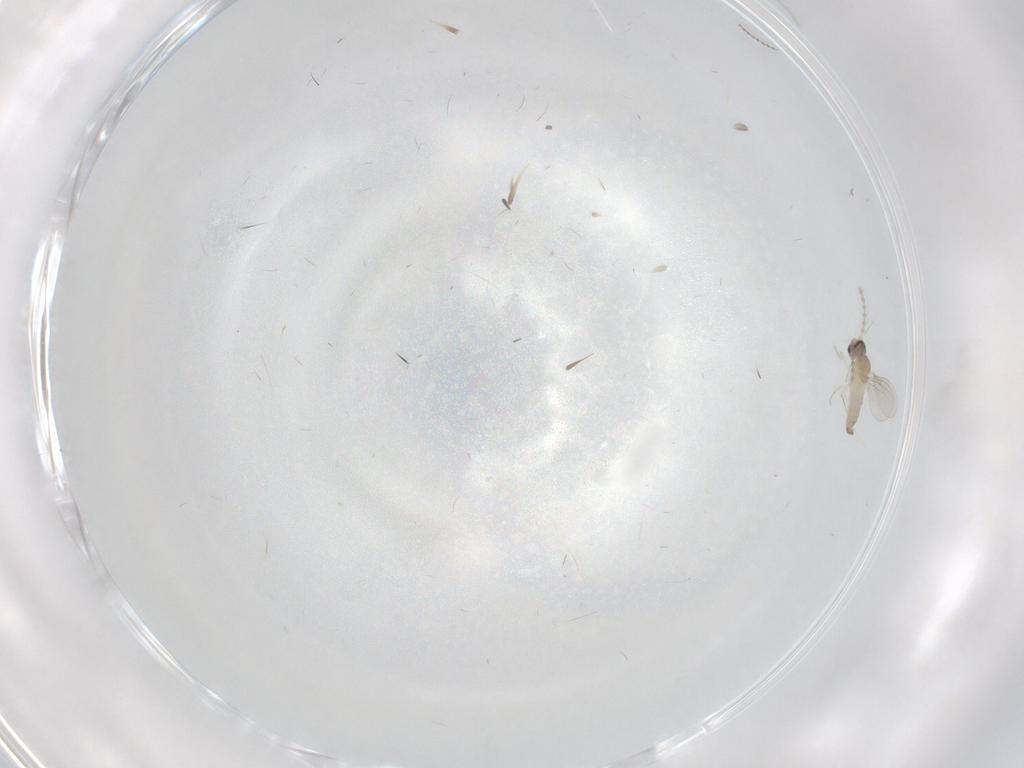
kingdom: Animalia
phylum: Arthropoda
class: Insecta
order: Diptera
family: Cecidomyiidae
